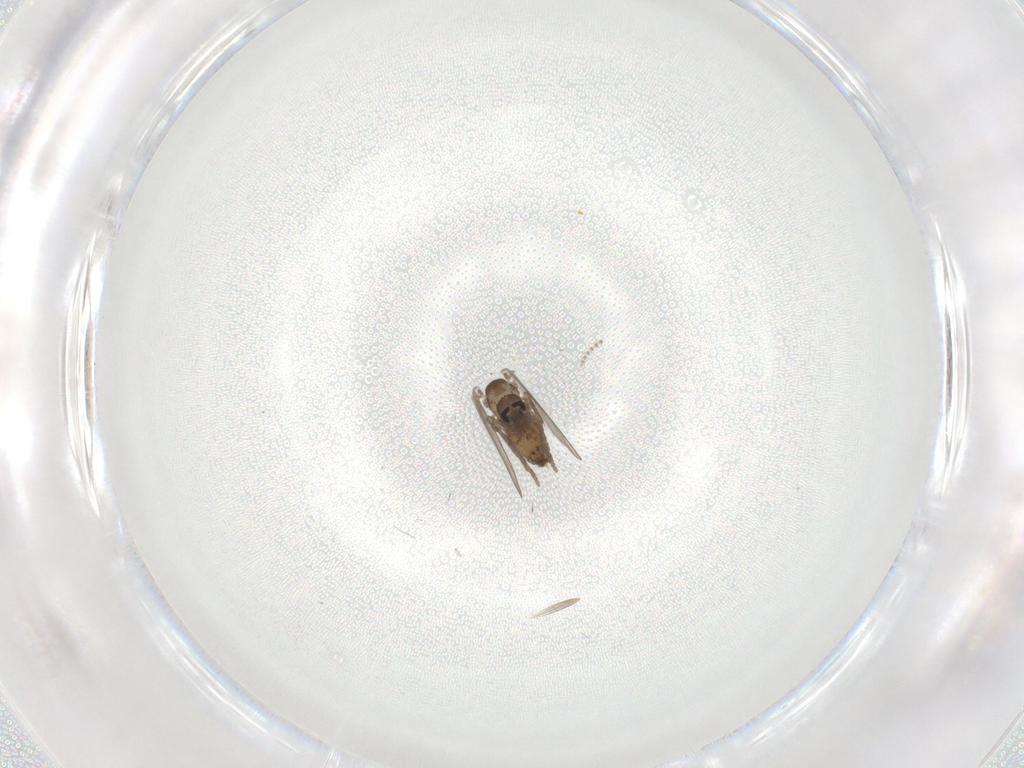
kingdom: Animalia
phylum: Arthropoda
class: Insecta
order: Diptera
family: Psychodidae
